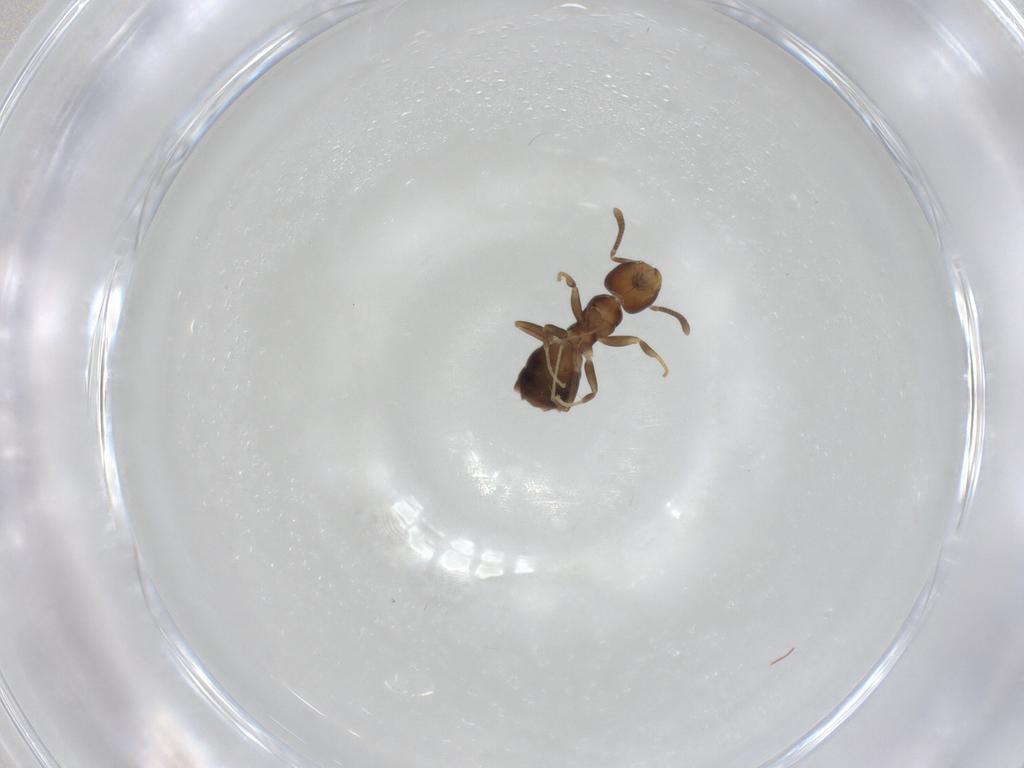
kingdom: Animalia
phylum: Arthropoda
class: Insecta
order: Hymenoptera
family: Formicidae
